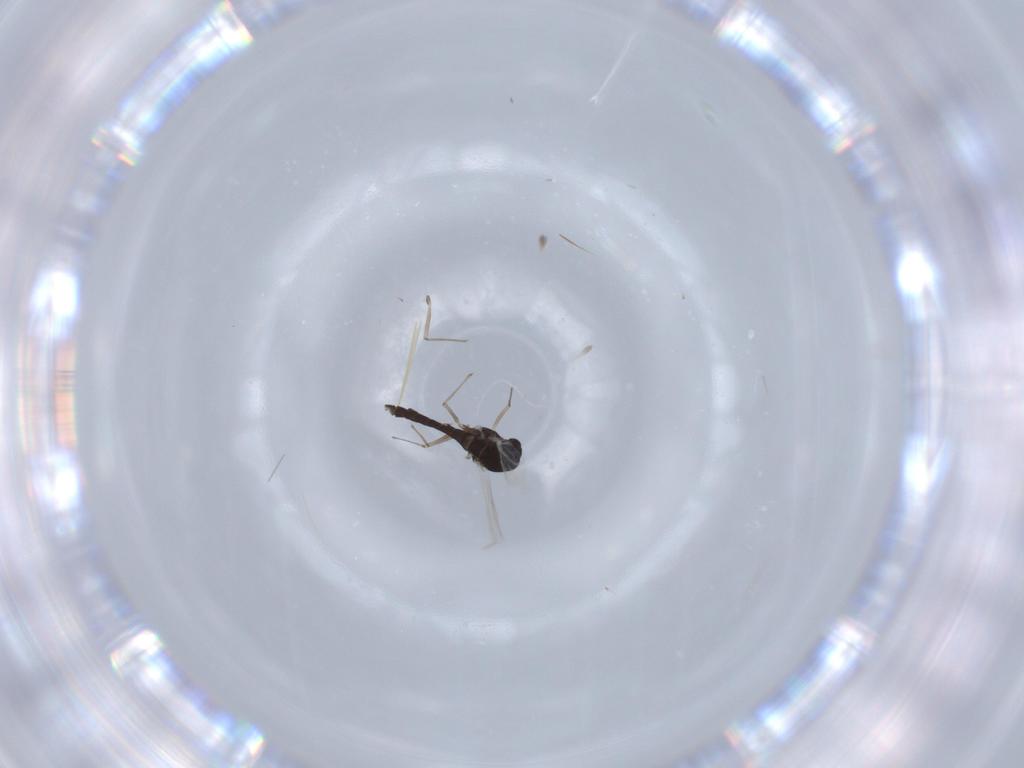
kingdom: Animalia
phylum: Arthropoda
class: Insecta
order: Diptera
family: Chironomidae
